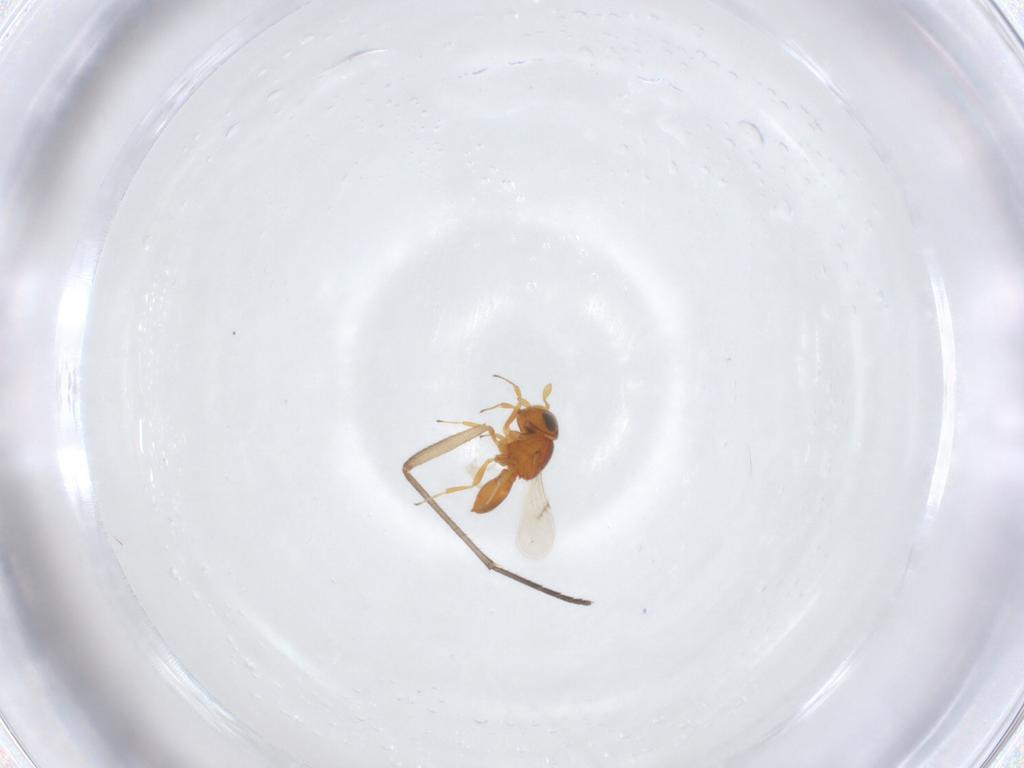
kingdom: Animalia
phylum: Arthropoda
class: Insecta
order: Hymenoptera
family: Scelionidae
